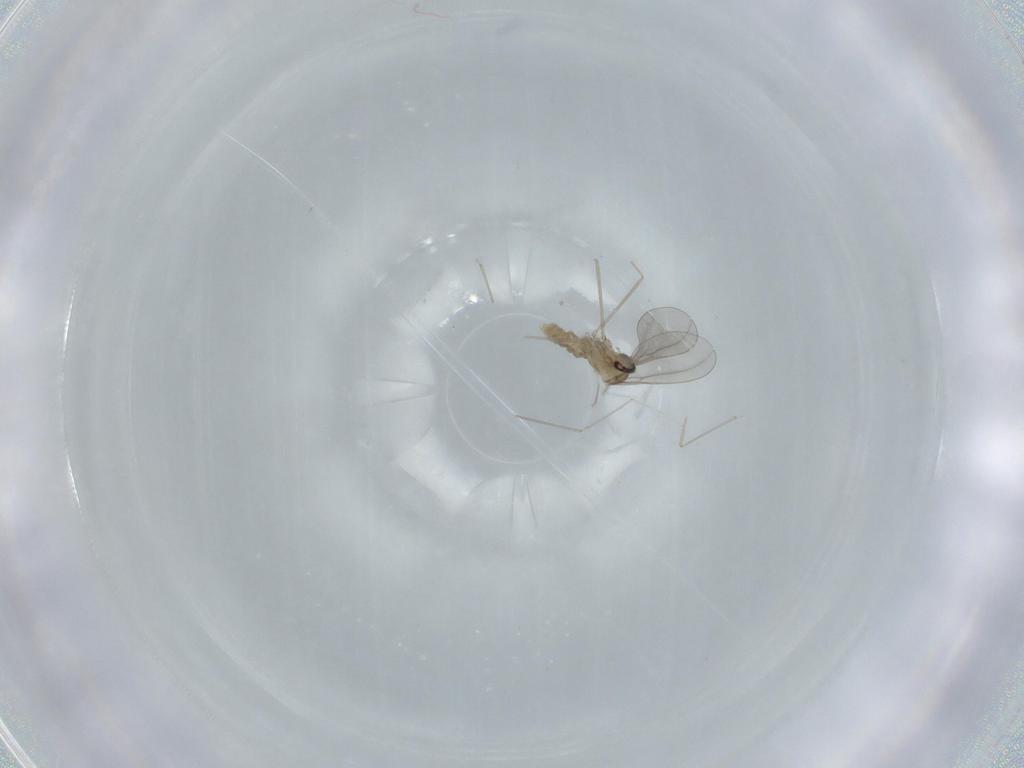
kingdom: Animalia
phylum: Arthropoda
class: Insecta
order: Diptera
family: Cecidomyiidae
